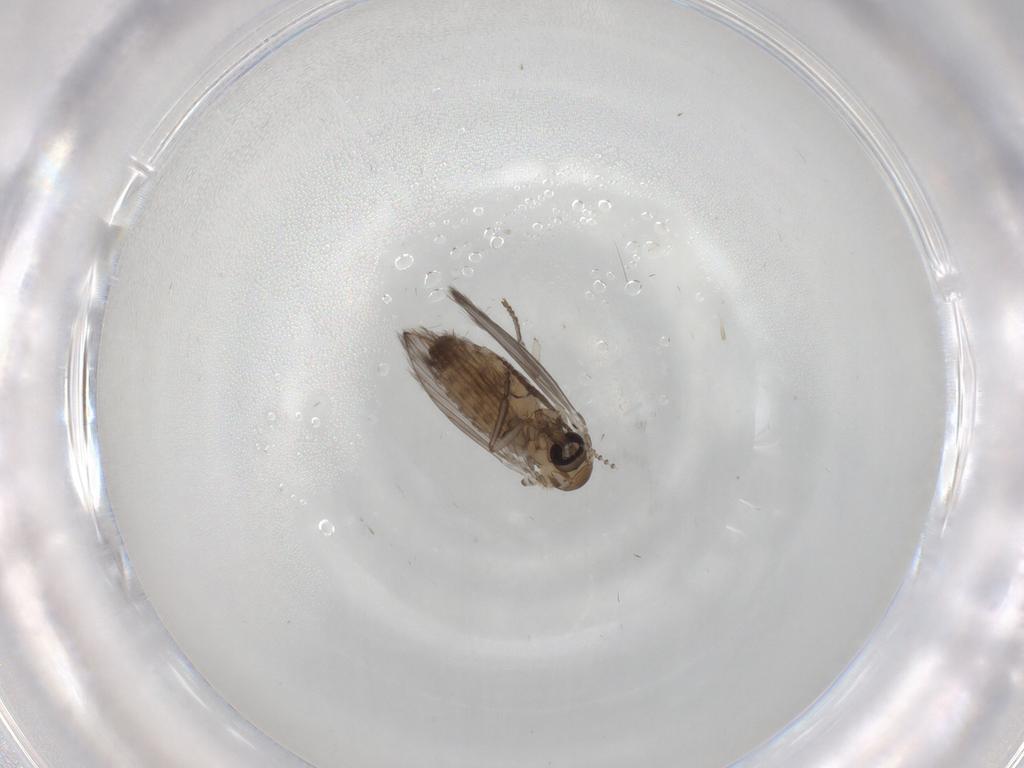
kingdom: Animalia
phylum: Arthropoda
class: Insecta
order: Diptera
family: Psychodidae
